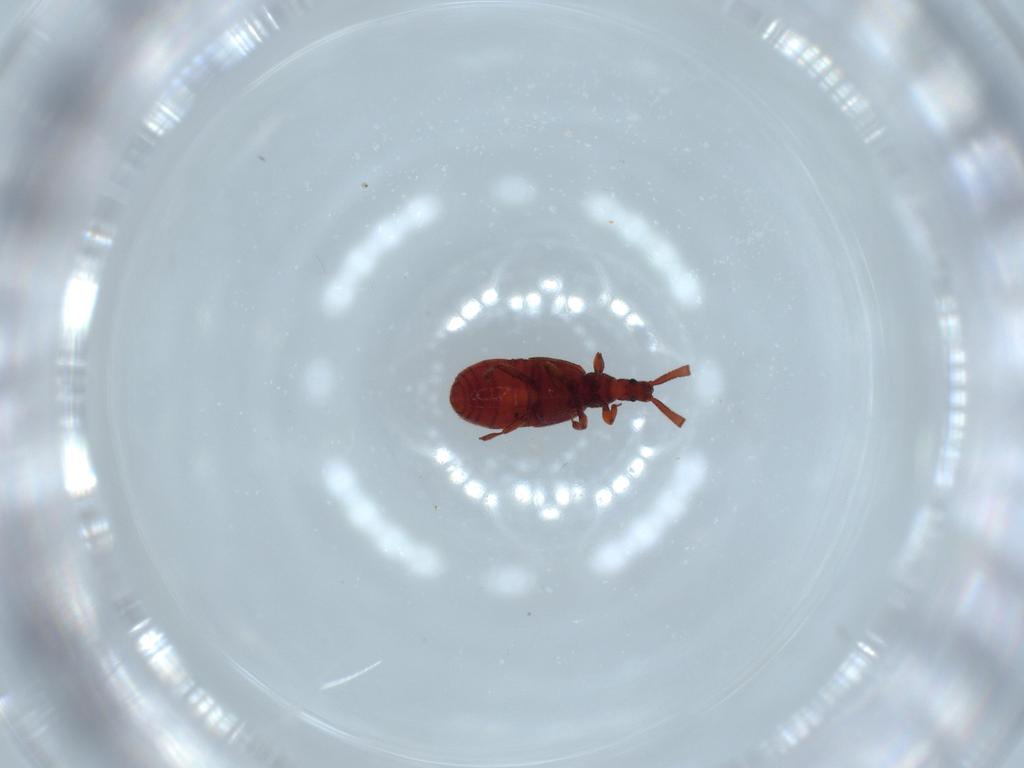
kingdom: Animalia
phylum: Arthropoda
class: Insecta
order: Coleoptera
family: Staphylinidae
